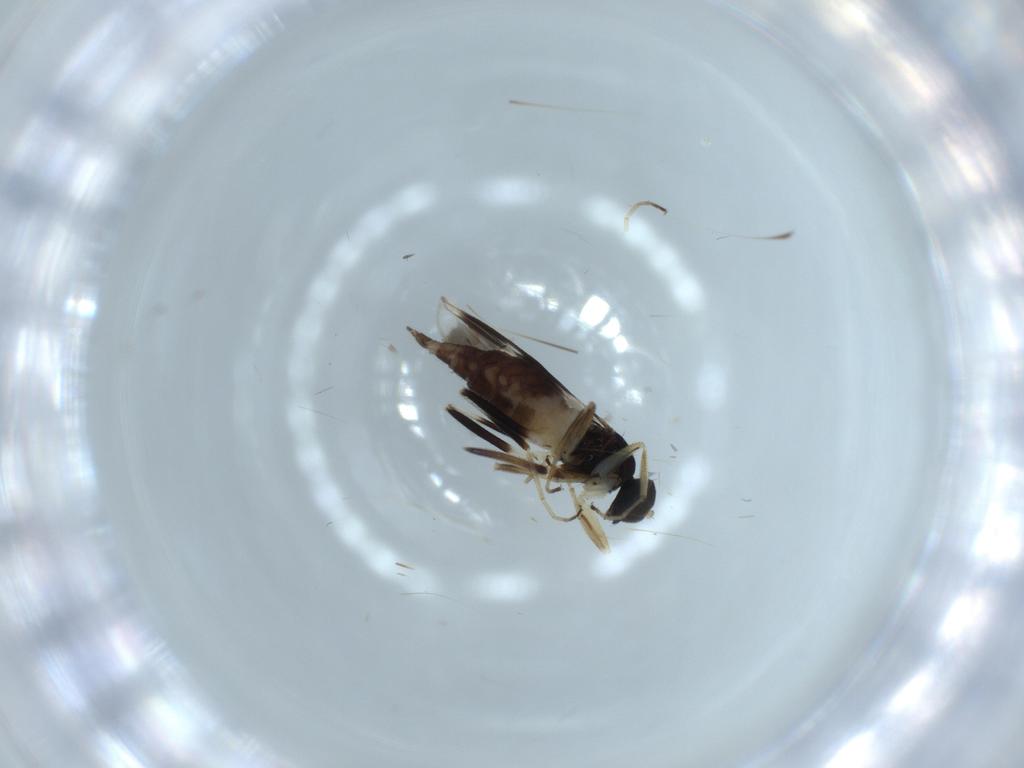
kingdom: Animalia
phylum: Arthropoda
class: Insecta
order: Diptera
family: Hybotidae
